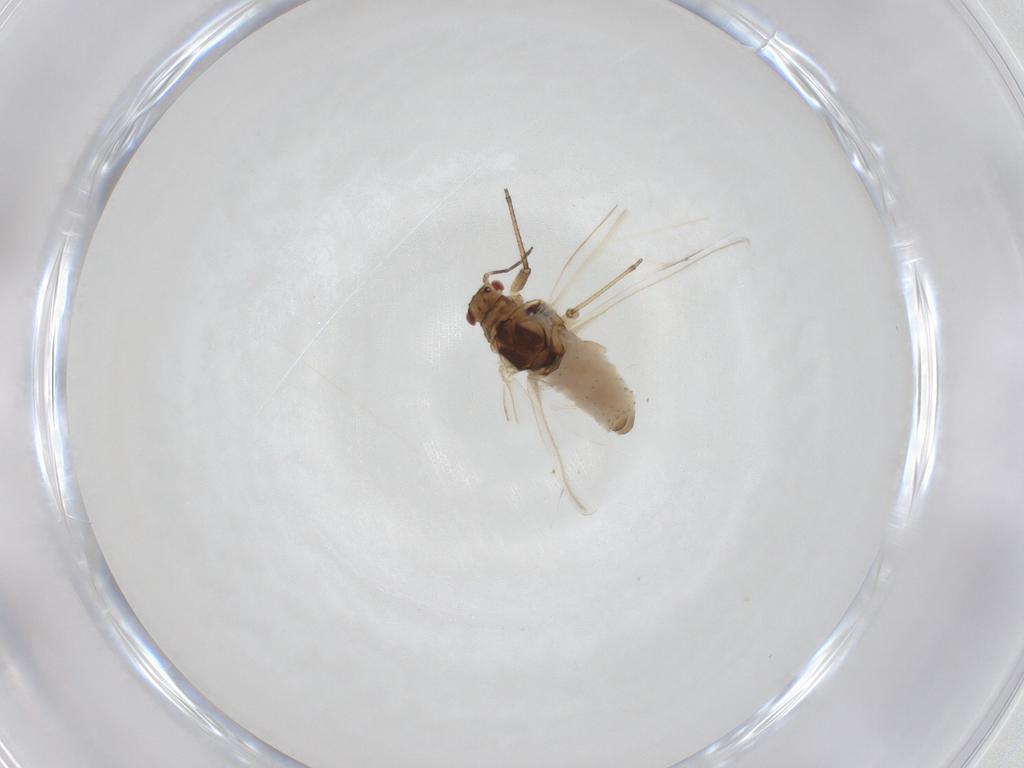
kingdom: Animalia
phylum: Arthropoda
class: Insecta
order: Hemiptera
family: Lachnidae
